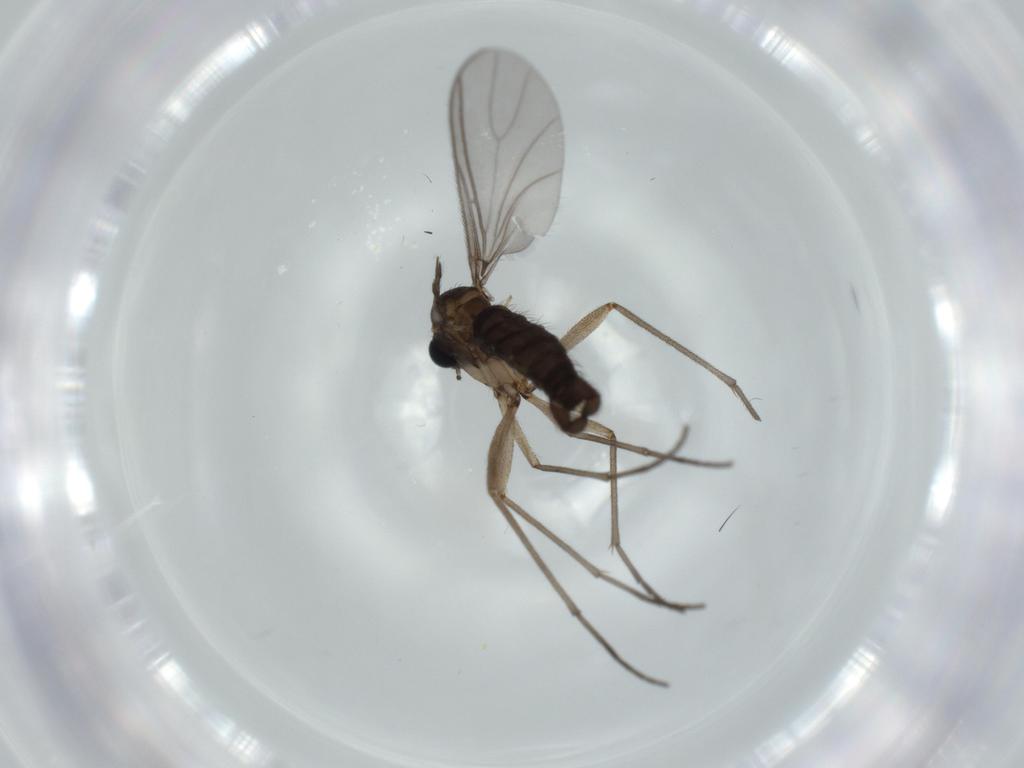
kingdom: Animalia
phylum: Arthropoda
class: Insecta
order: Diptera
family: Sciaridae
